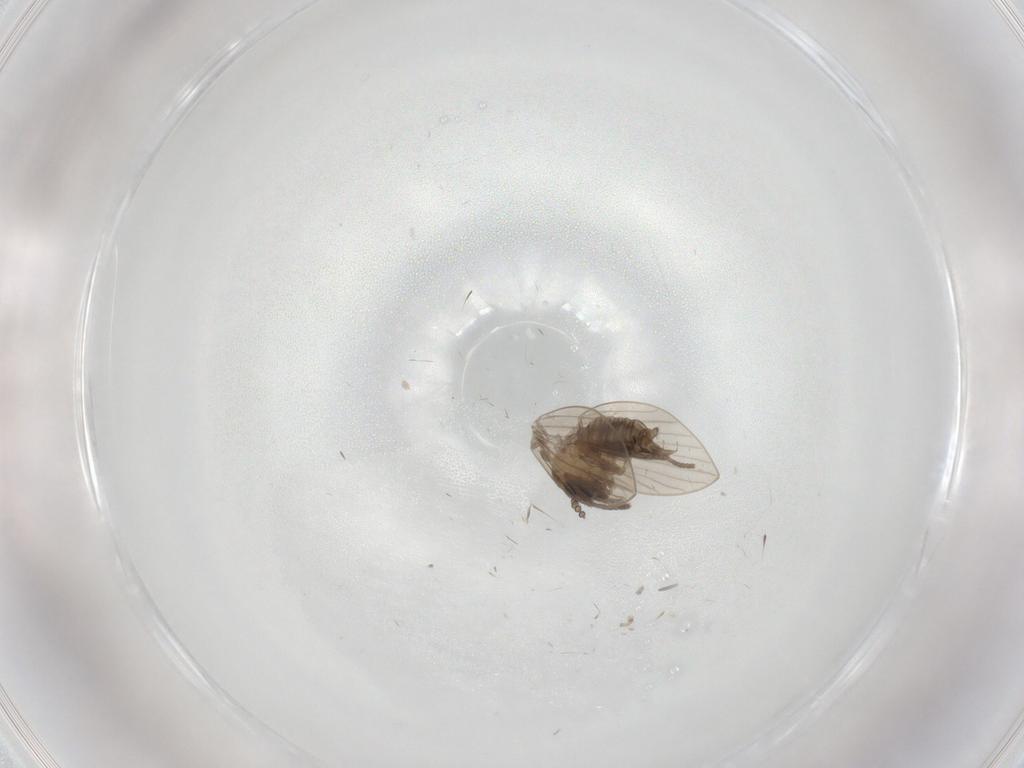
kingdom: Animalia
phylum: Arthropoda
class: Insecta
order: Diptera
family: Psychodidae
